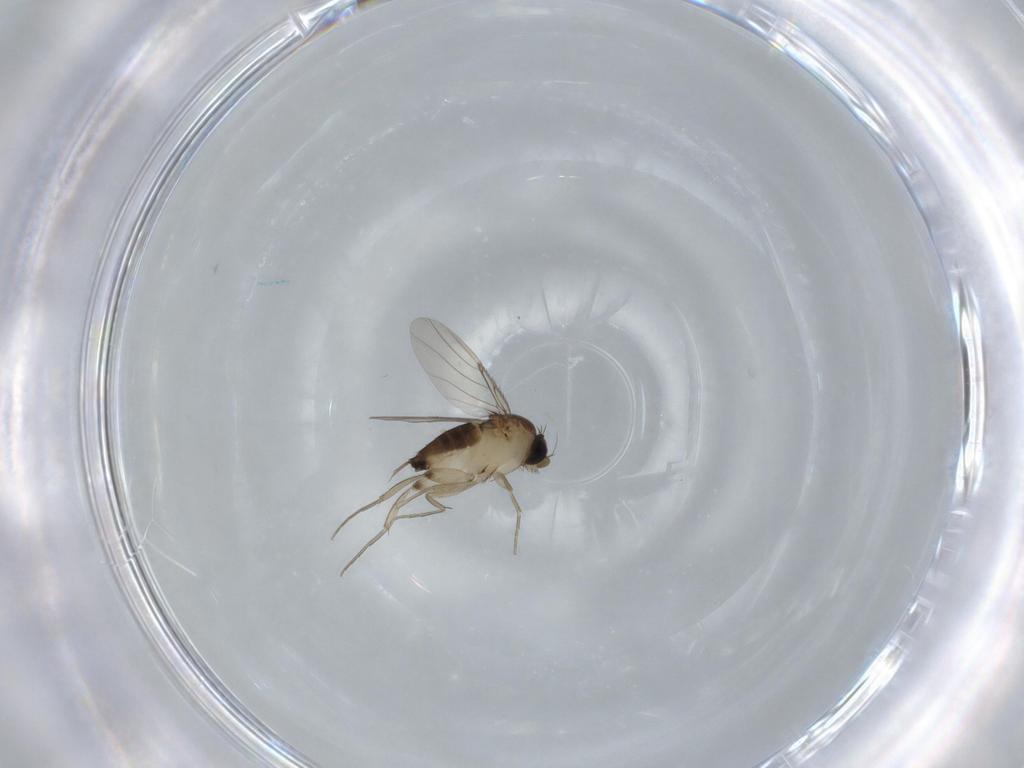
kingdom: Animalia
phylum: Arthropoda
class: Insecta
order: Diptera
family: Phoridae
